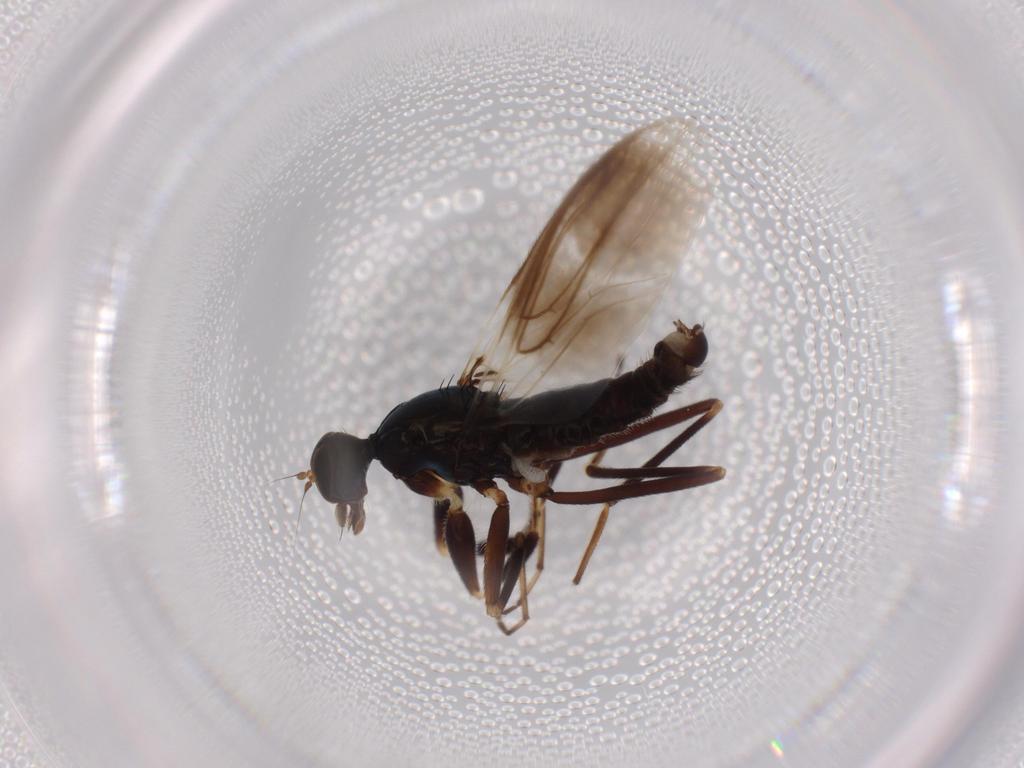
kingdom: Animalia
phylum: Arthropoda
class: Insecta
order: Diptera
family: Hybotidae
